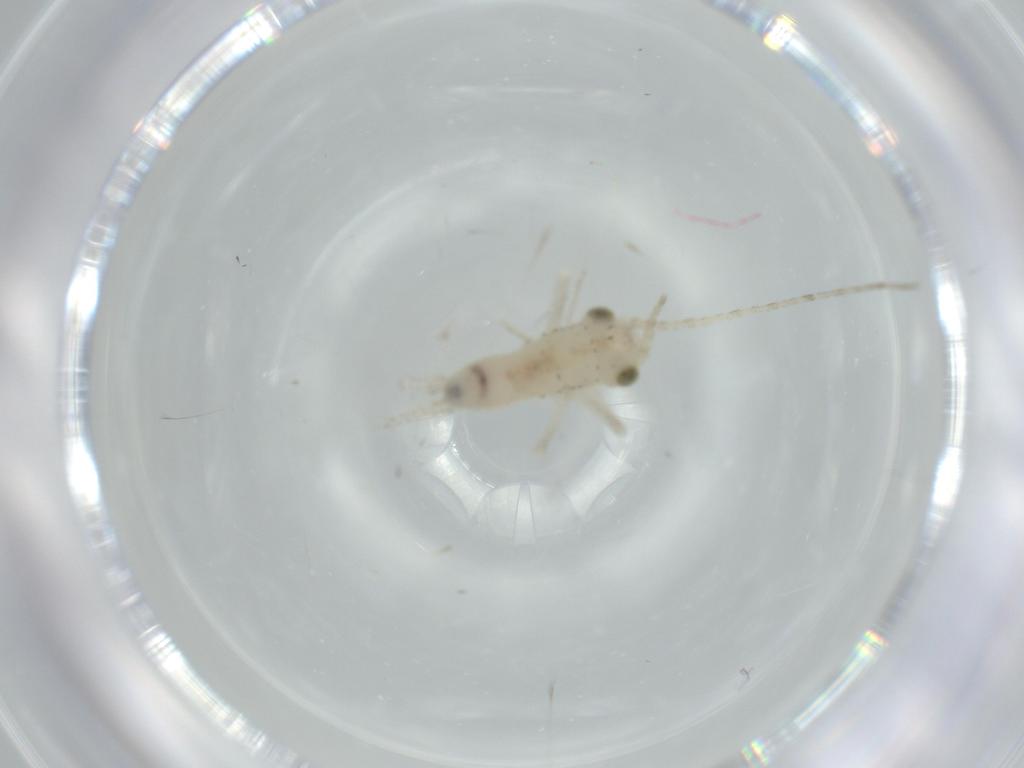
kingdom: Animalia
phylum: Arthropoda
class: Insecta
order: Orthoptera
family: Trigonidiidae
